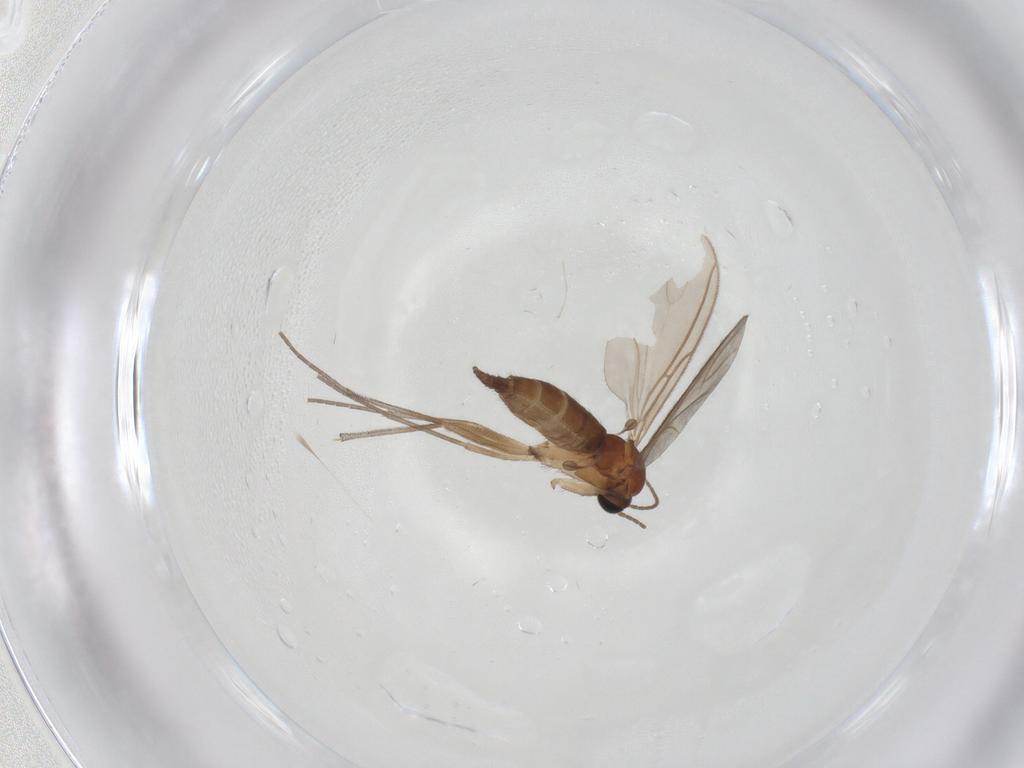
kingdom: Animalia
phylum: Arthropoda
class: Insecta
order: Diptera
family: Sciaridae
